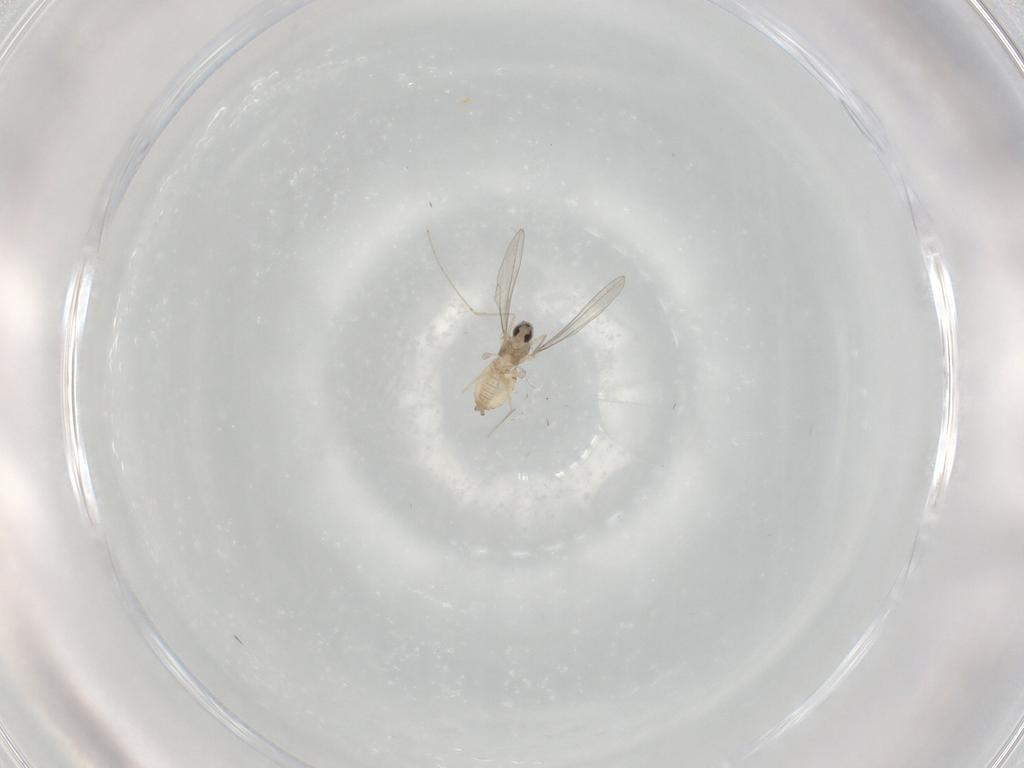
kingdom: Animalia
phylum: Arthropoda
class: Insecta
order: Diptera
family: Cecidomyiidae
